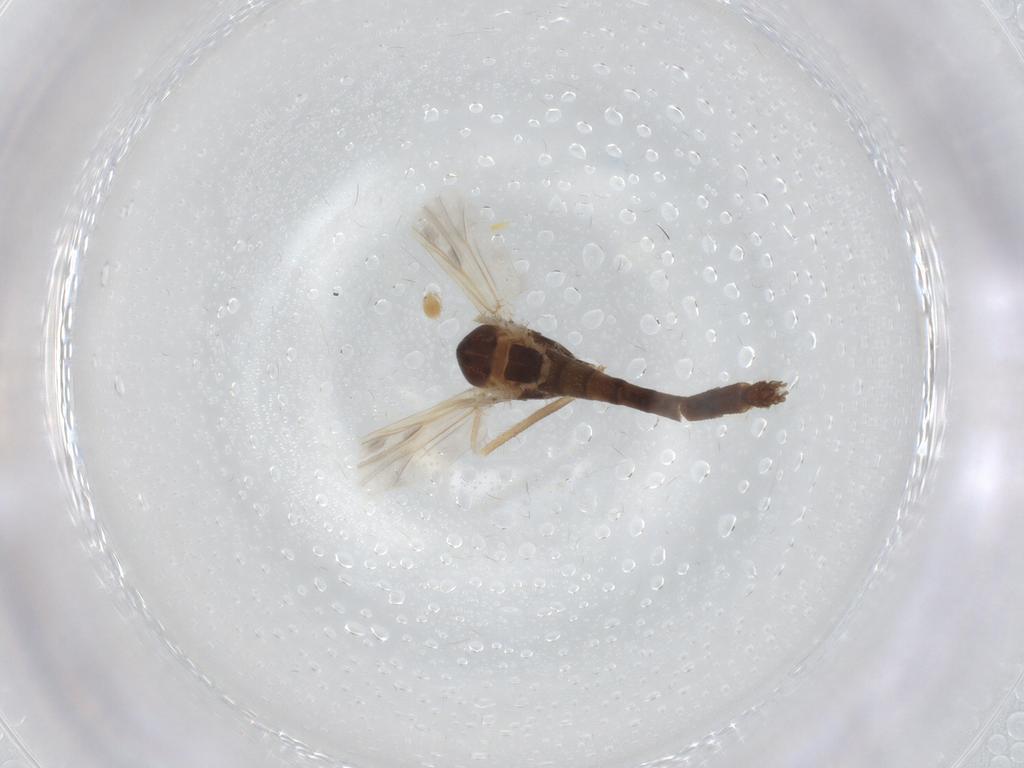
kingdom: Animalia
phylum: Arthropoda
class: Insecta
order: Diptera
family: Chironomidae
